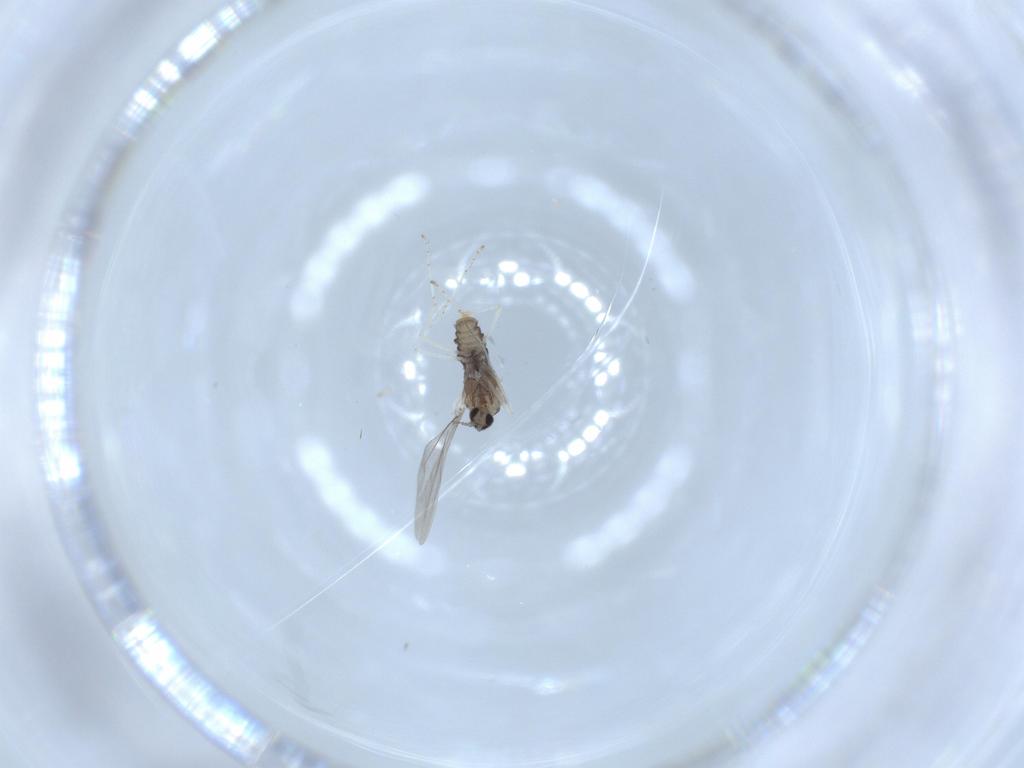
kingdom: Animalia
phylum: Arthropoda
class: Insecta
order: Diptera
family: Cecidomyiidae
